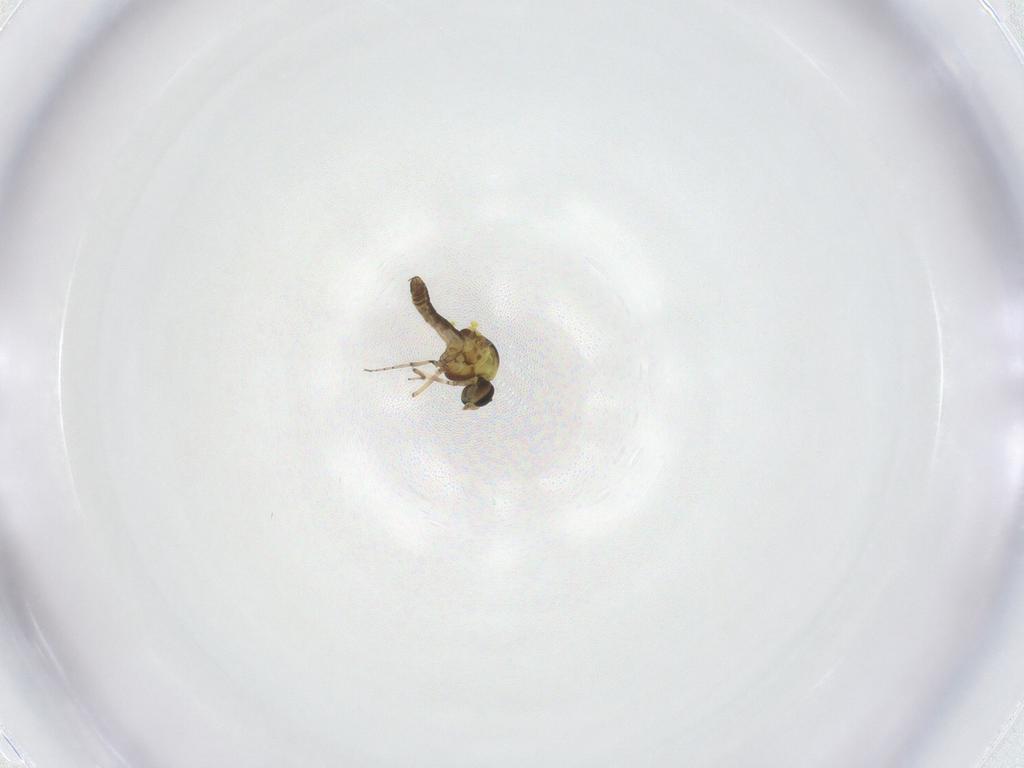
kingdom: Animalia
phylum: Arthropoda
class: Insecta
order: Diptera
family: Ceratopogonidae
